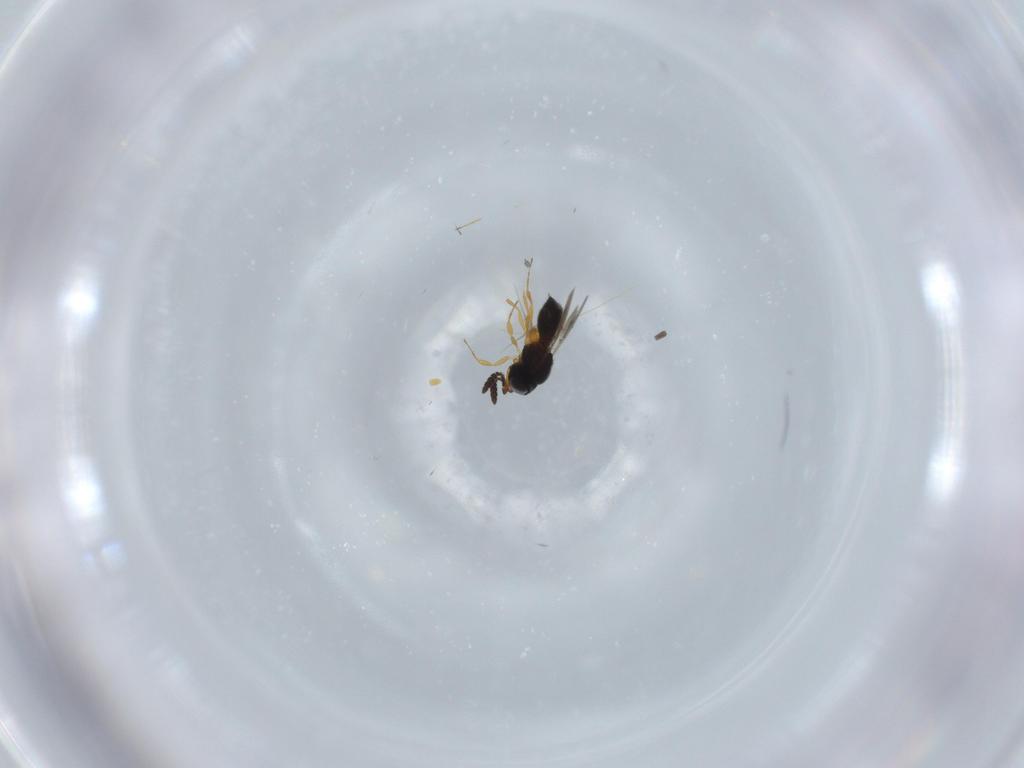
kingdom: Animalia
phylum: Arthropoda
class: Insecta
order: Hymenoptera
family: Scelionidae
